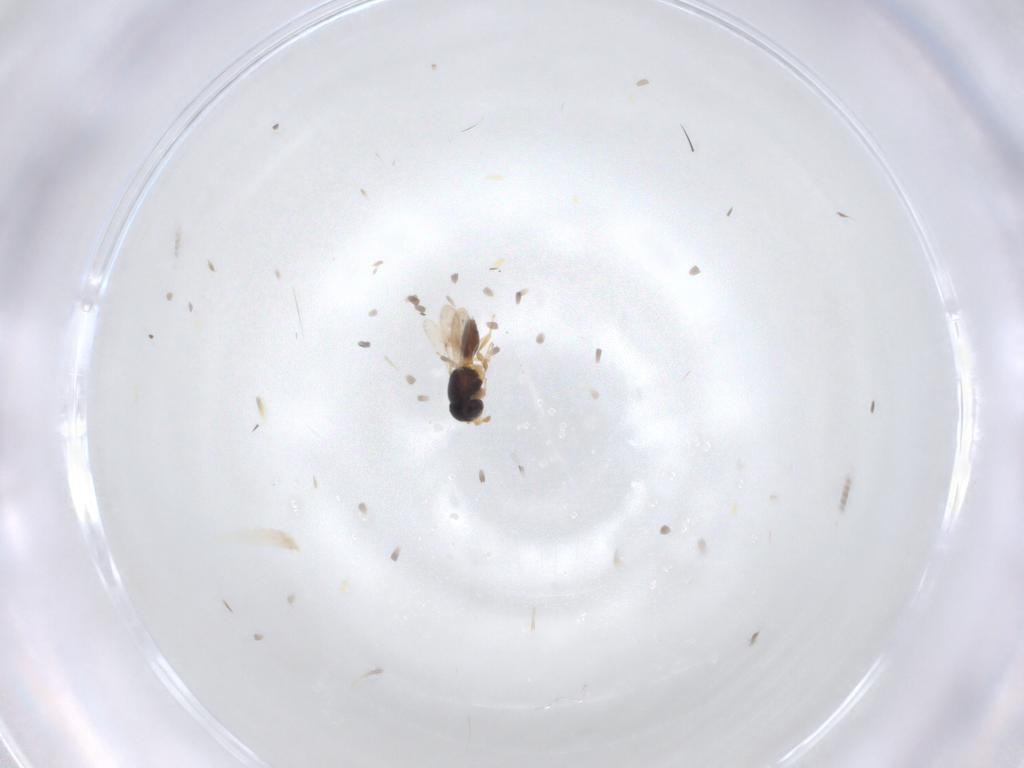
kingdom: Animalia
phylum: Arthropoda
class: Insecta
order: Hymenoptera
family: Scelionidae
